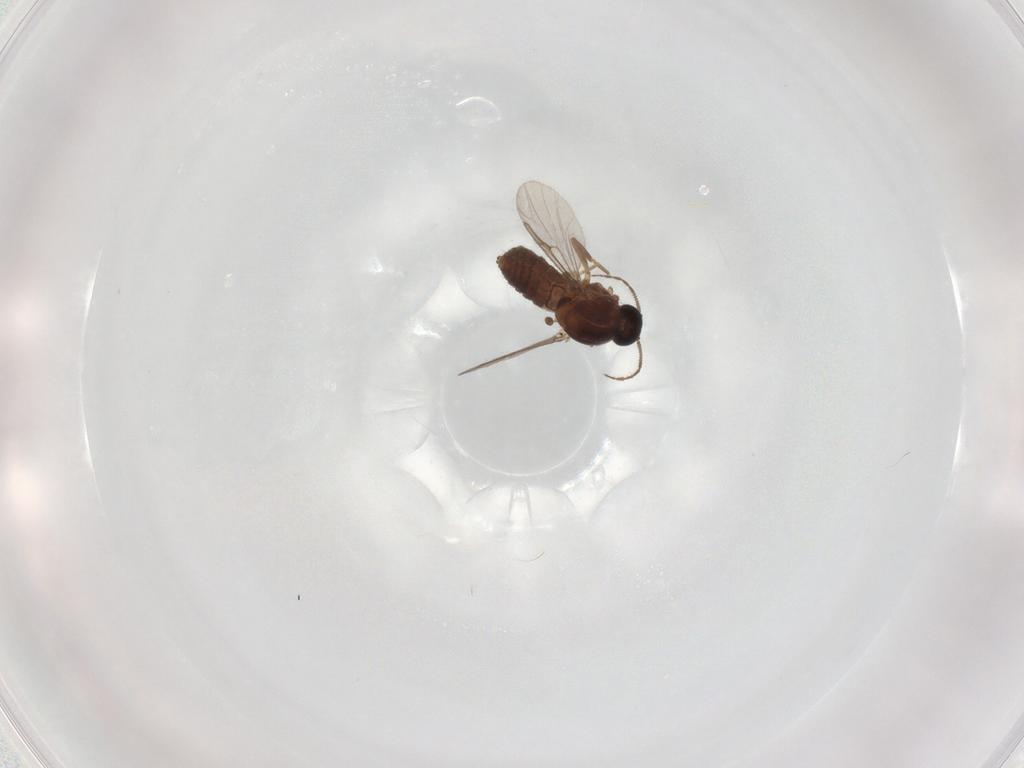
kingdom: Animalia
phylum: Arthropoda
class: Insecta
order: Diptera
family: Ceratopogonidae
